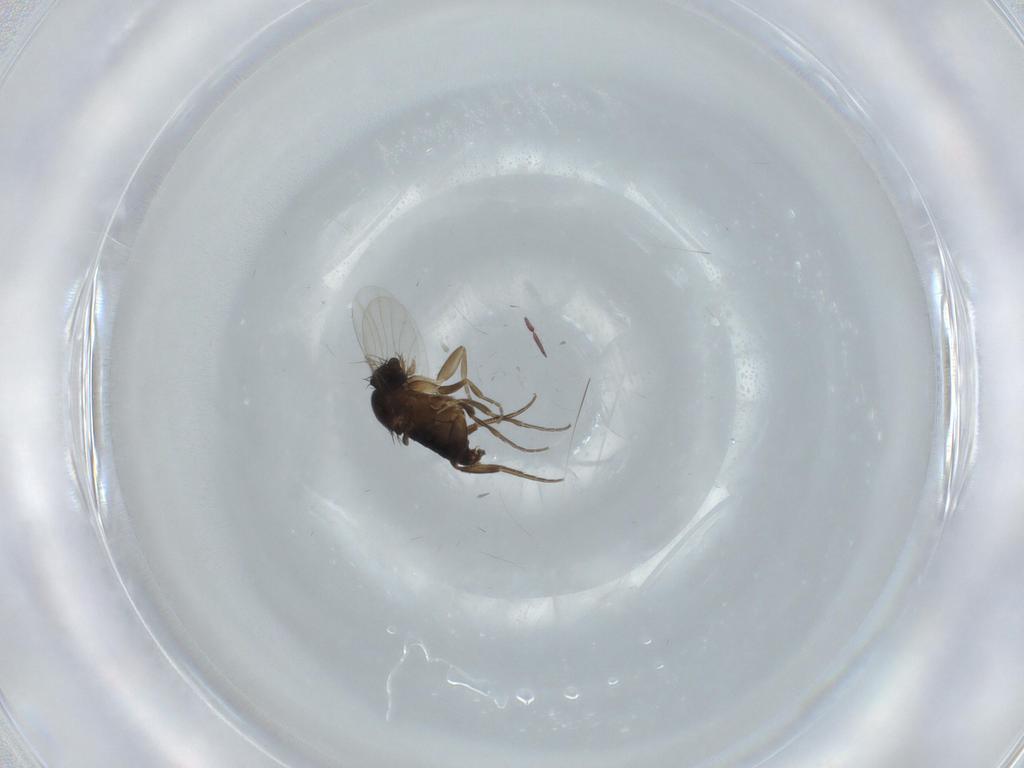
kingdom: Animalia
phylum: Arthropoda
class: Insecta
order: Diptera
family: Phoridae
